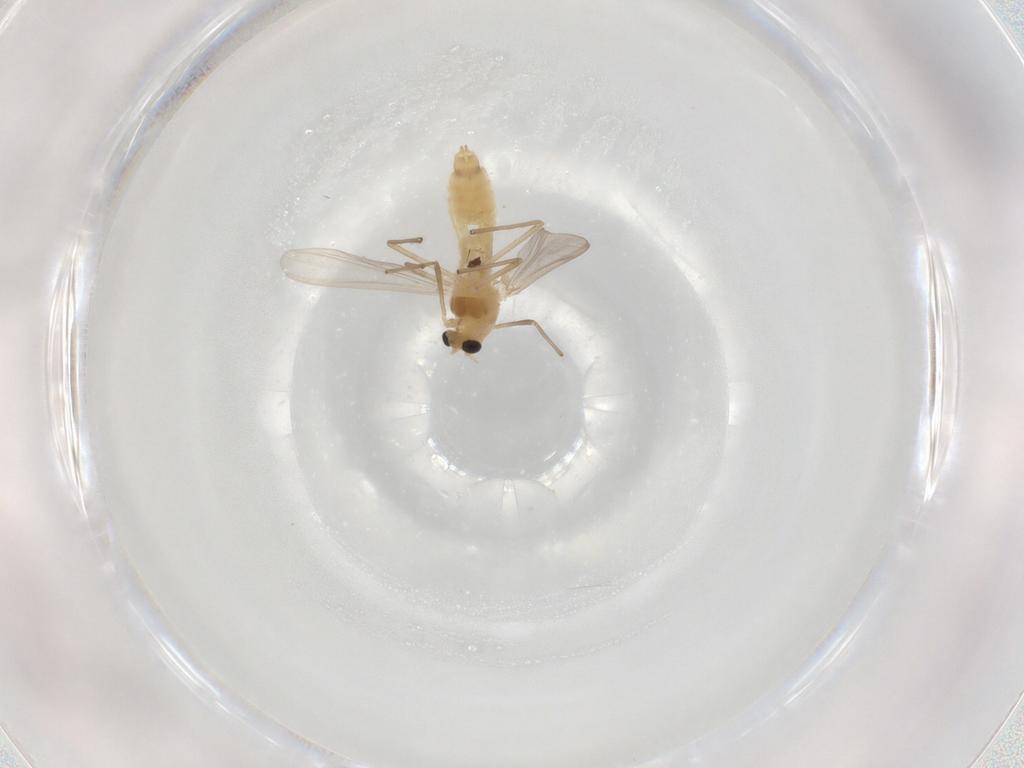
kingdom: Animalia
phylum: Arthropoda
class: Insecta
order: Diptera
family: Chironomidae
